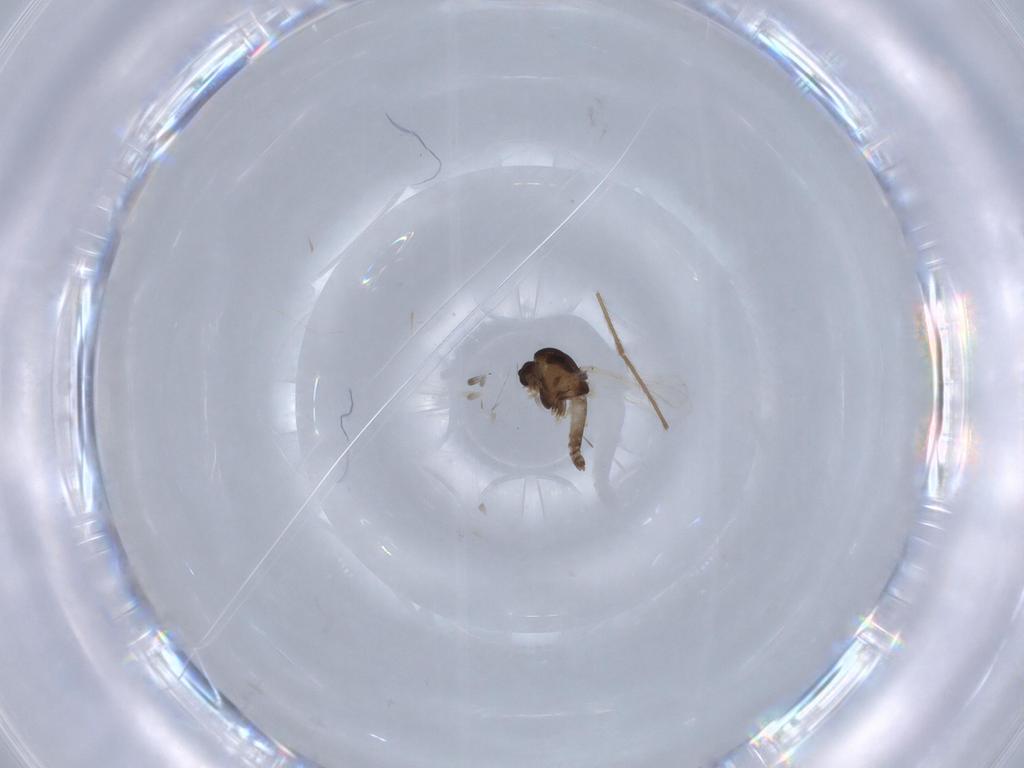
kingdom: Animalia
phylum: Arthropoda
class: Insecta
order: Diptera
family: Chironomidae
